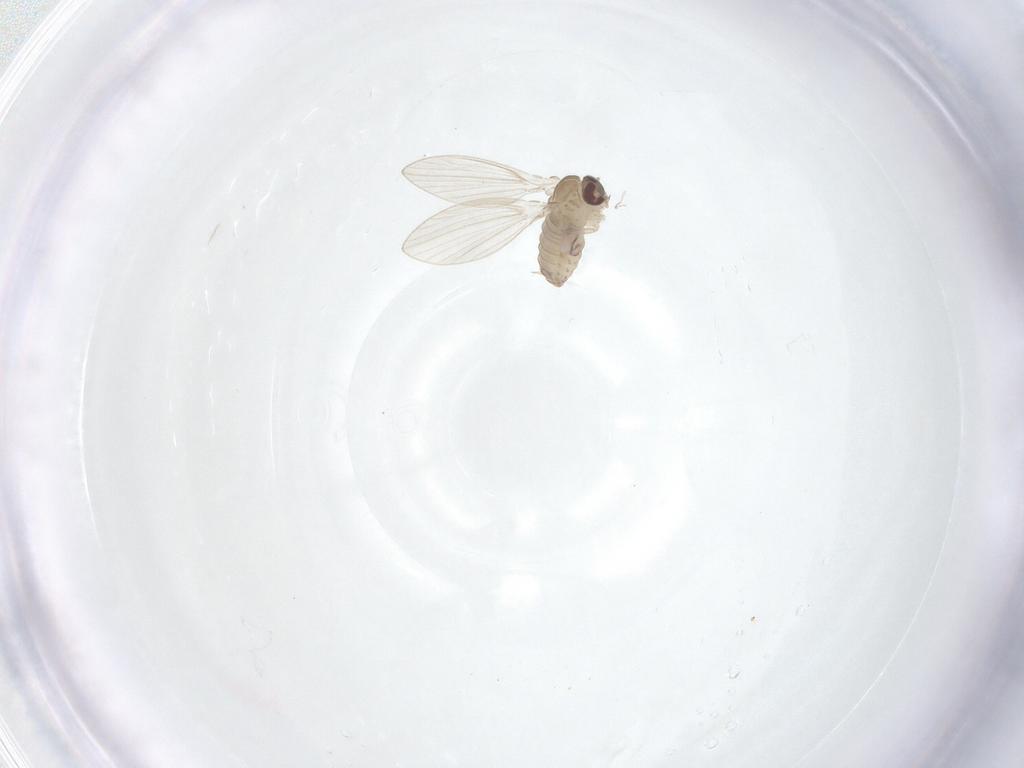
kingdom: Animalia
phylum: Arthropoda
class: Insecta
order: Diptera
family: Psychodidae
